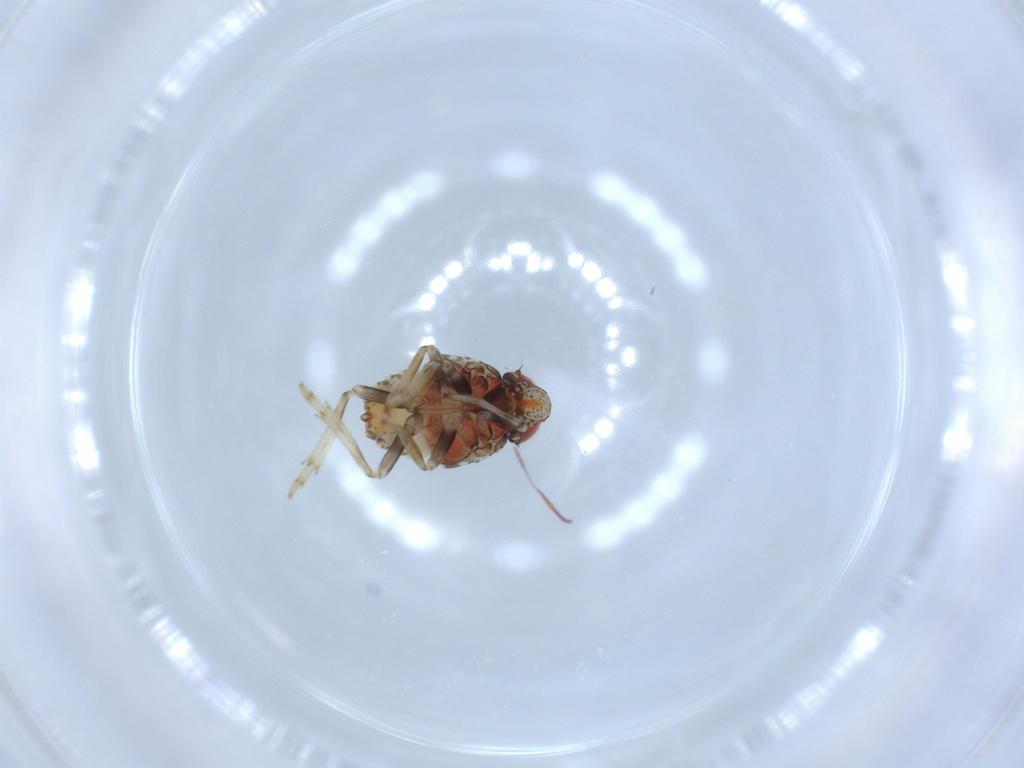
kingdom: Animalia
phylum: Arthropoda
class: Insecta
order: Hemiptera
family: Issidae
